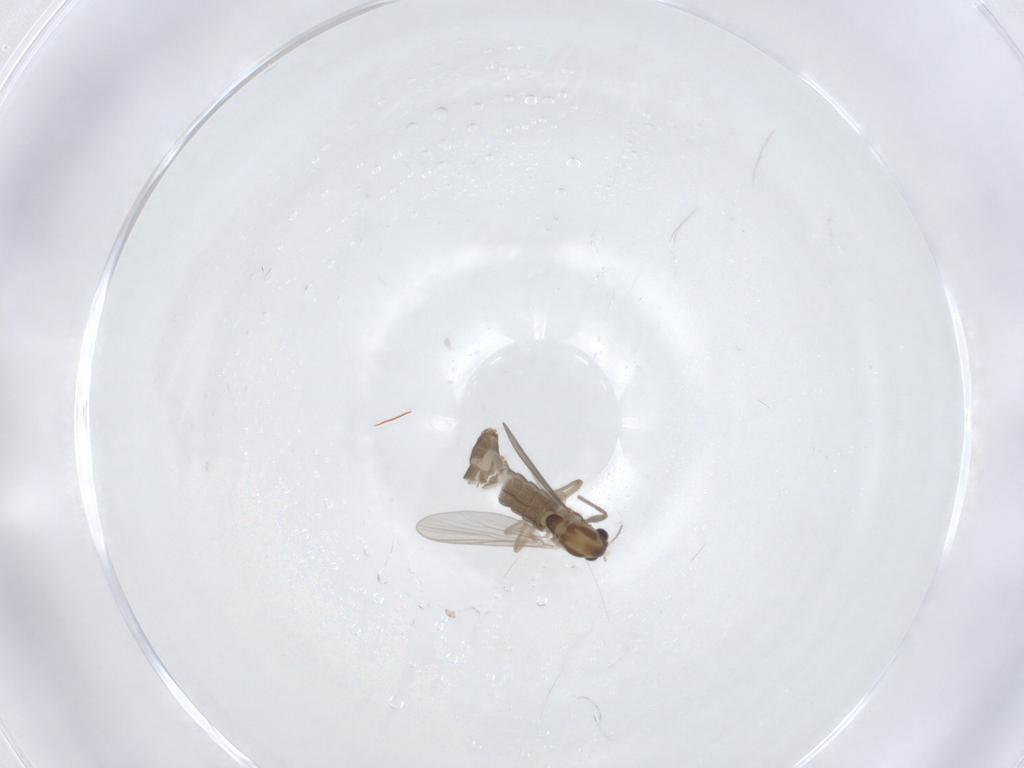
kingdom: Animalia
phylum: Arthropoda
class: Insecta
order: Diptera
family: Chironomidae
